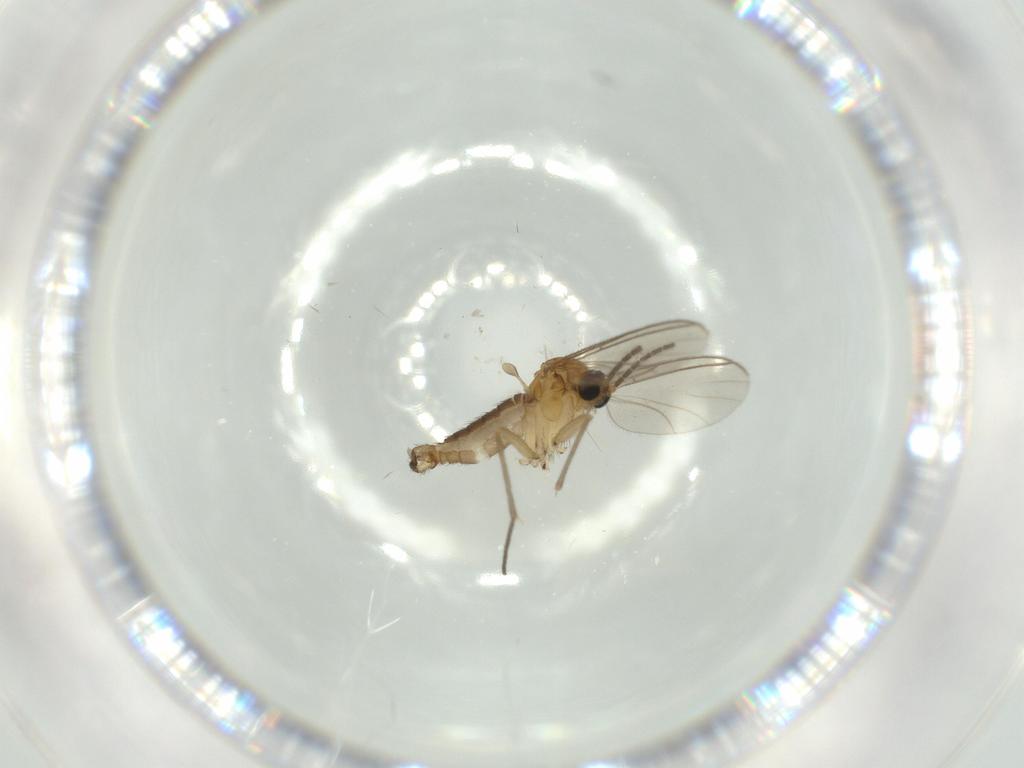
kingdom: Animalia
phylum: Arthropoda
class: Insecta
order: Diptera
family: Sciaridae
